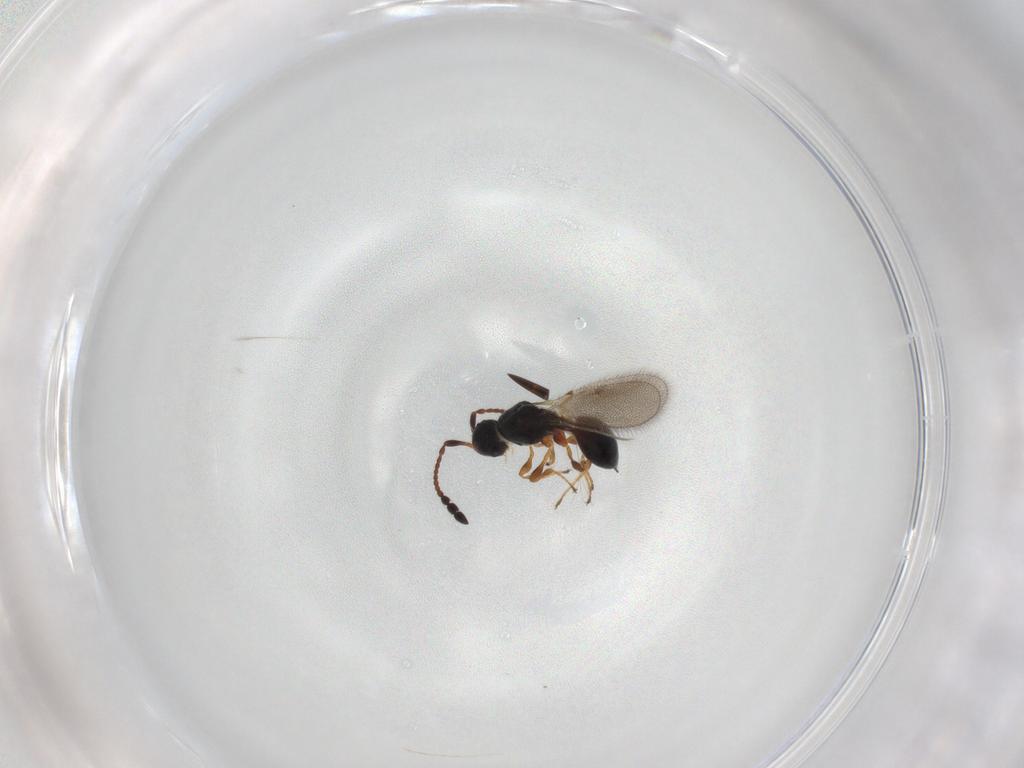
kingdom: Animalia
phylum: Arthropoda
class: Insecta
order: Hymenoptera
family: Diapriidae
